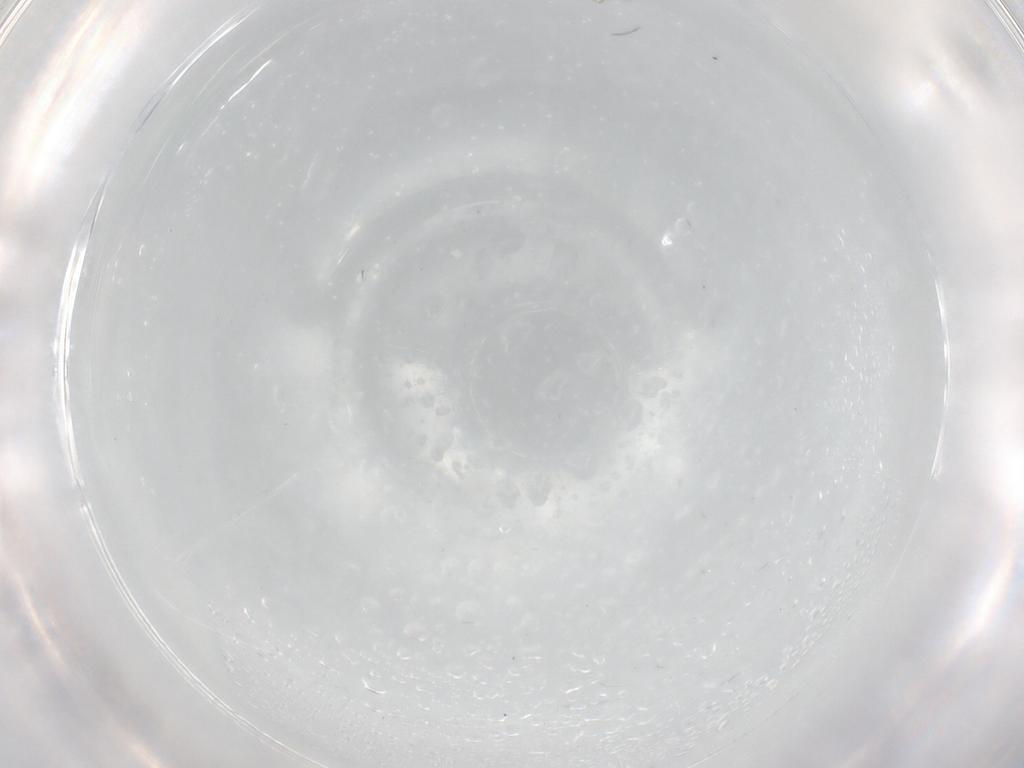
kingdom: Animalia
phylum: Arthropoda
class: Insecta
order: Diptera
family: Cecidomyiidae
